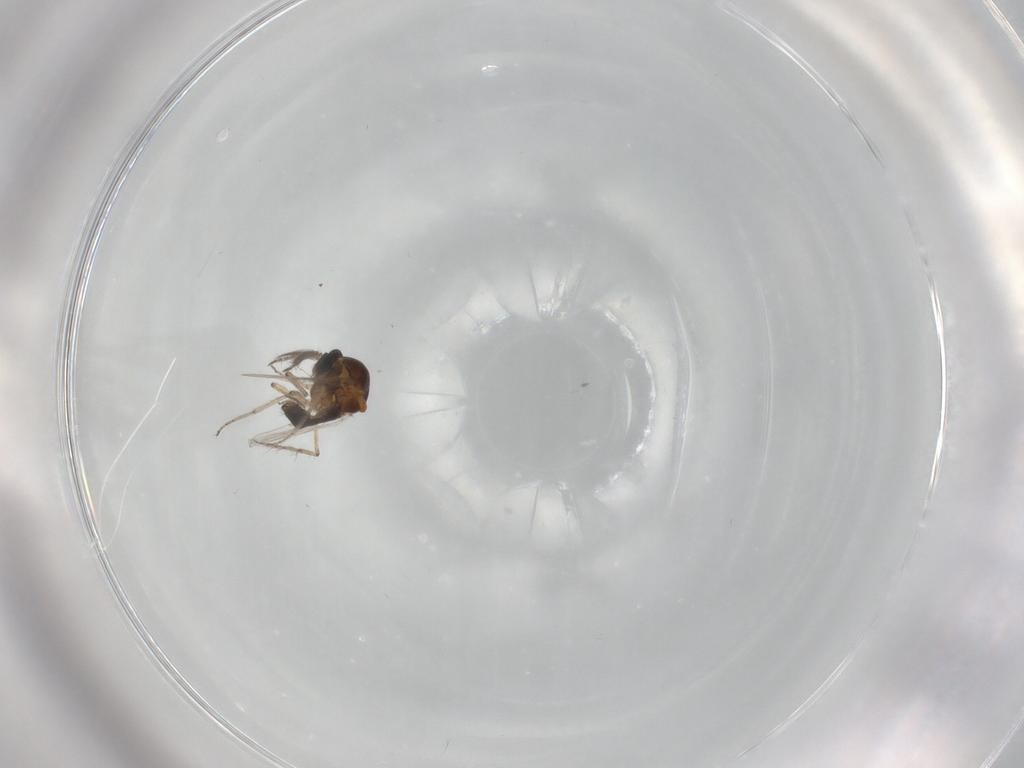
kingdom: Animalia
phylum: Arthropoda
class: Insecta
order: Diptera
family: Ceratopogonidae
